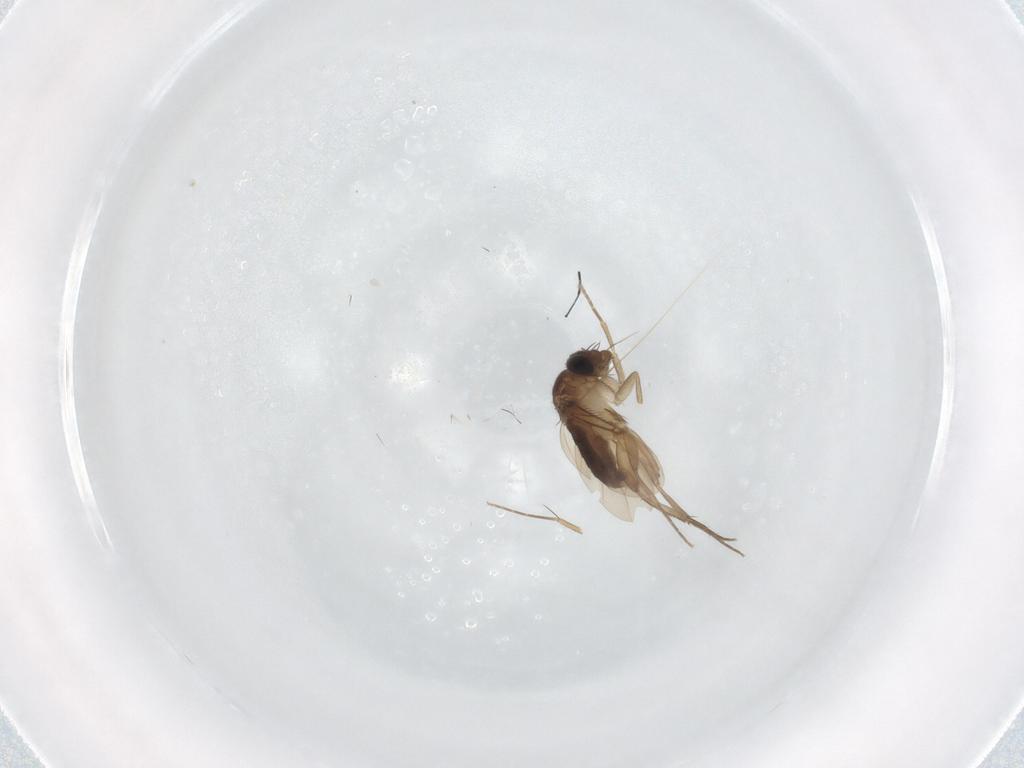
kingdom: Animalia
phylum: Arthropoda
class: Insecta
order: Diptera
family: Phoridae
